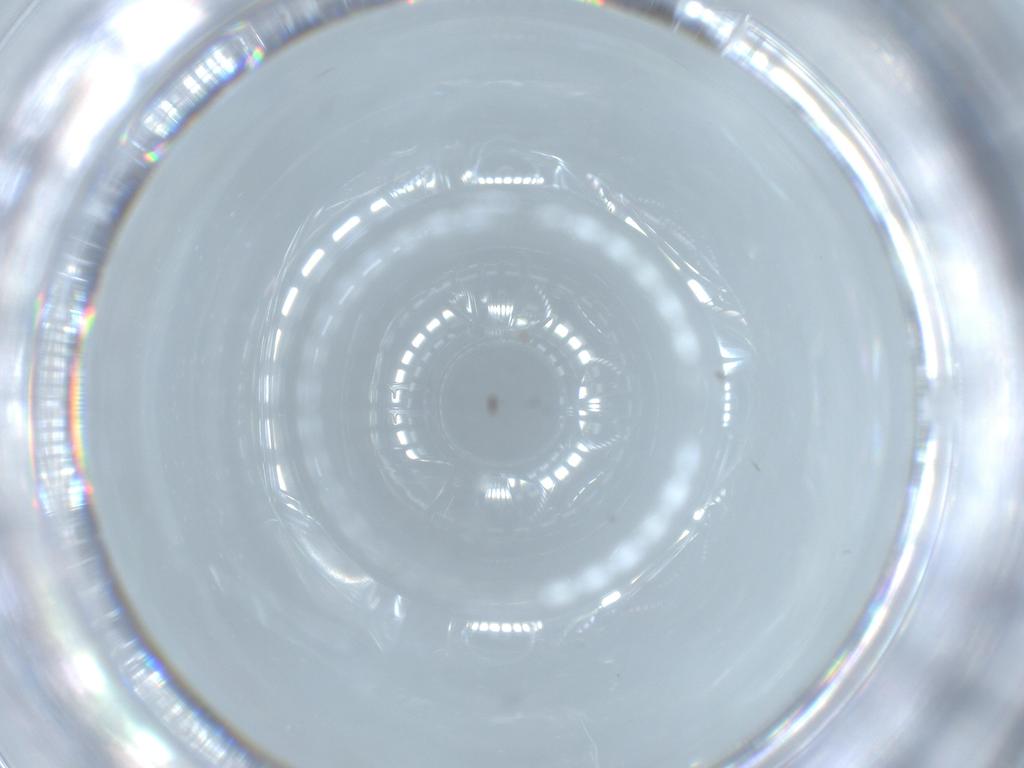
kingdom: Animalia
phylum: Arthropoda
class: Insecta
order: Diptera
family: Ceratopogonidae
